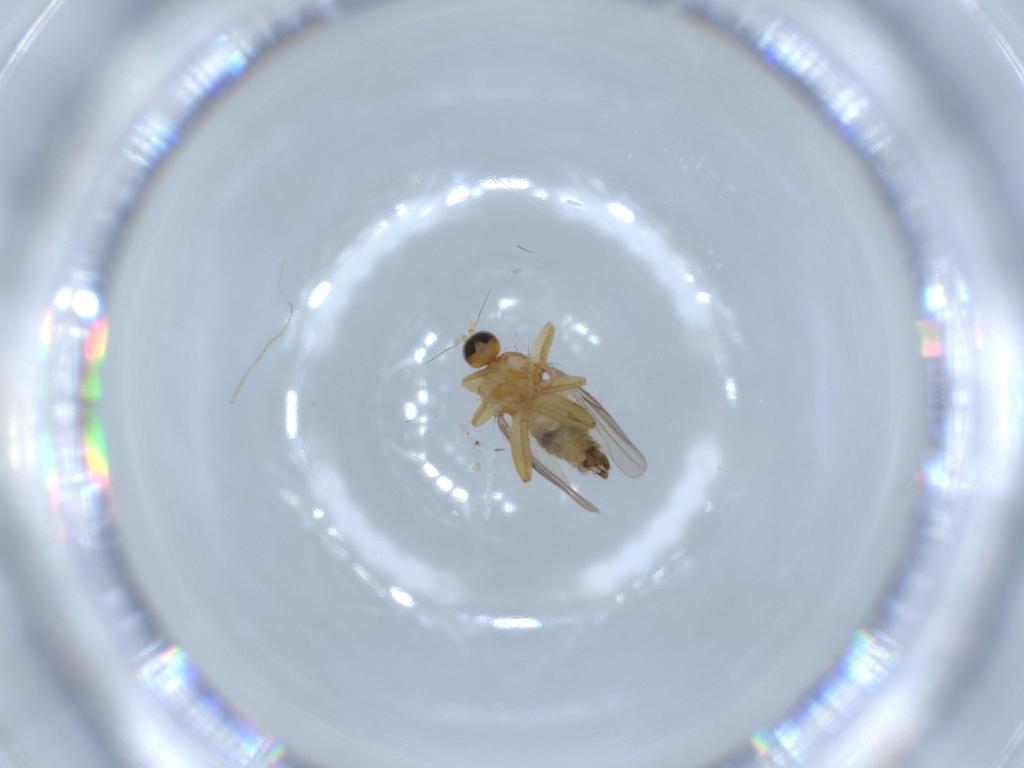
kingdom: Animalia
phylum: Arthropoda
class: Insecta
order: Diptera
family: Hybotidae
